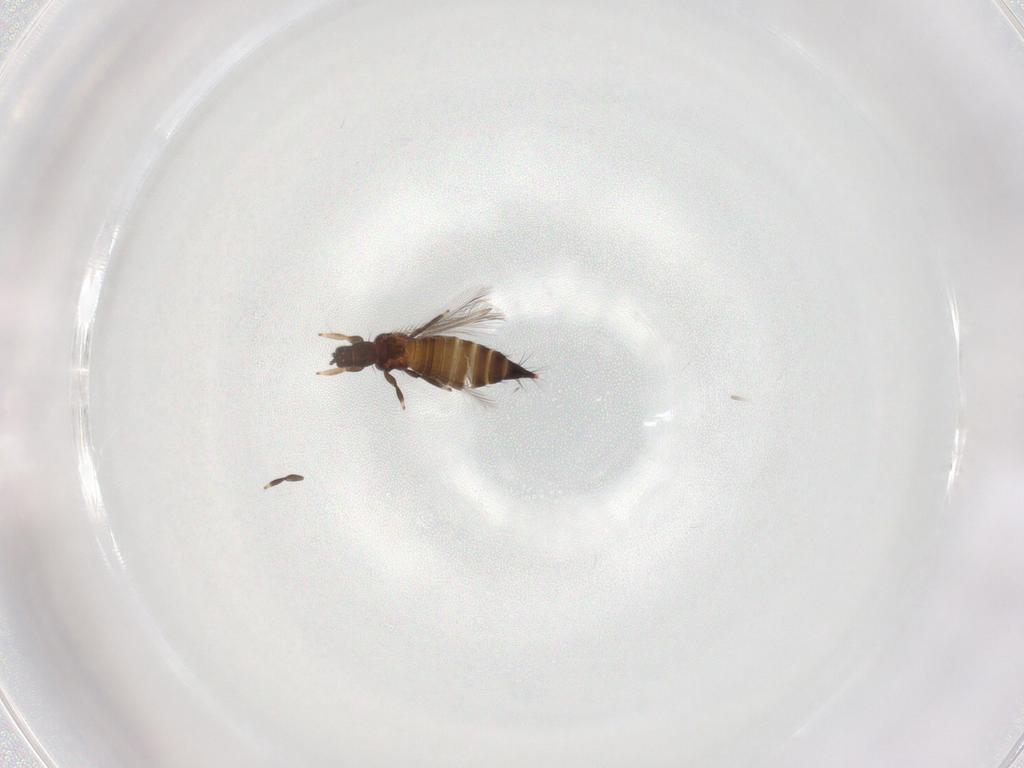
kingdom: Animalia
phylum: Arthropoda
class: Insecta
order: Thysanoptera
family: Thripidae
